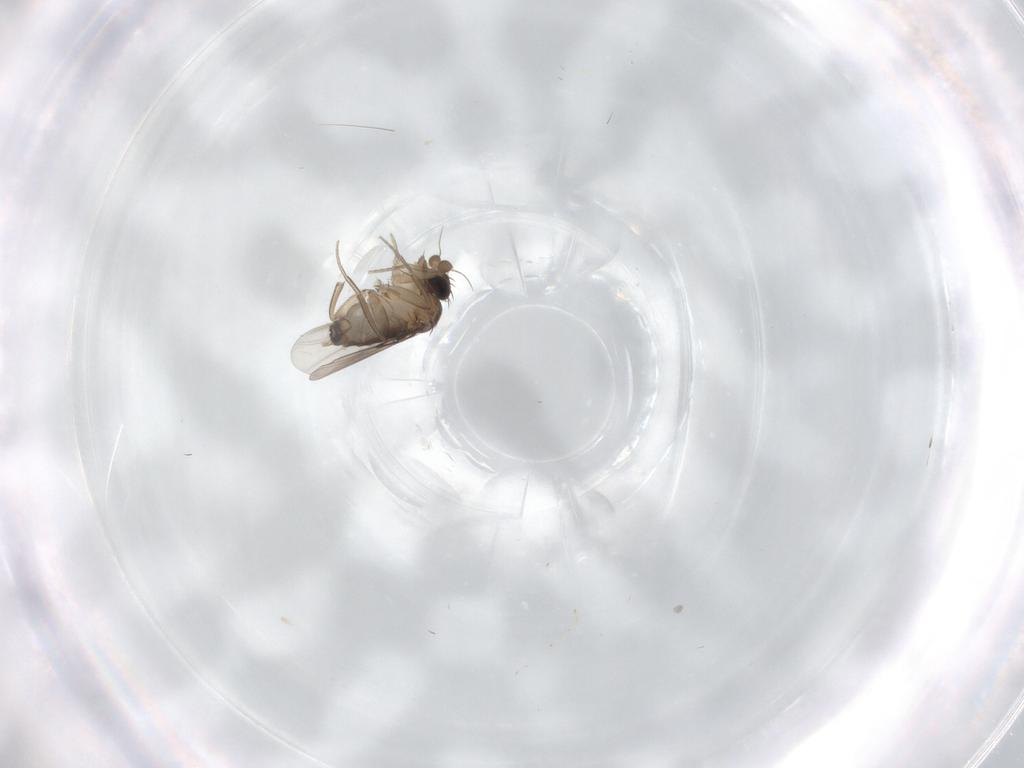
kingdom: Animalia
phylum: Arthropoda
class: Insecta
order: Diptera
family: Phoridae
